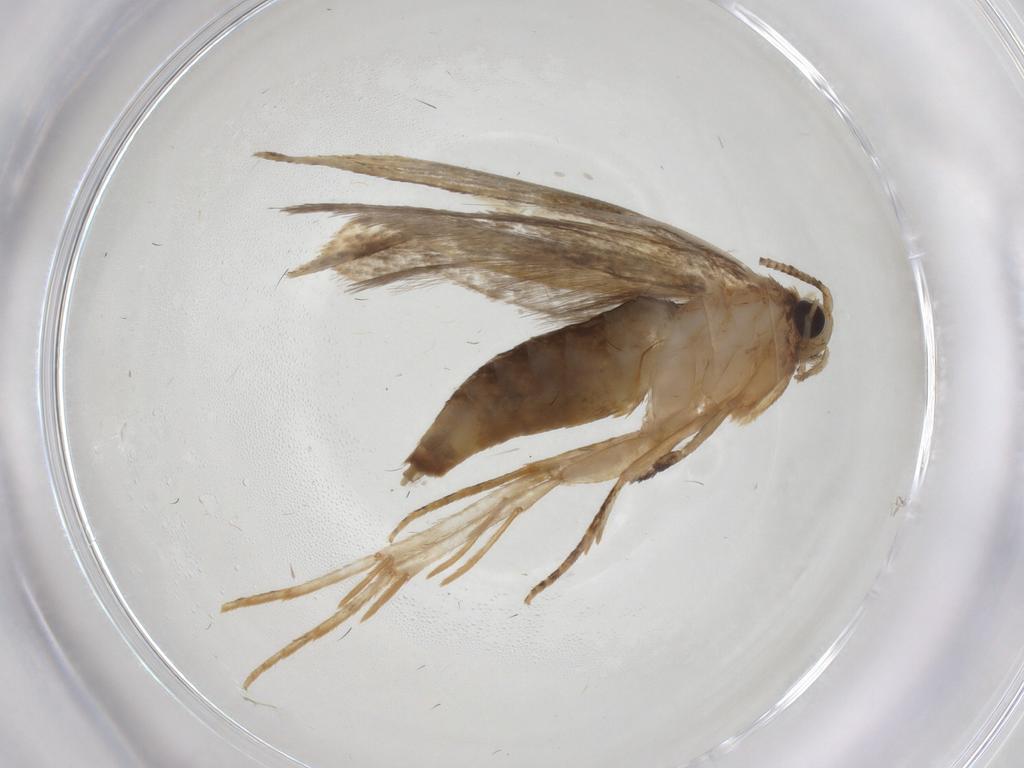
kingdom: Animalia
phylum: Arthropoda
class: Insecta
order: Lepidoptera
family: Tineidae
